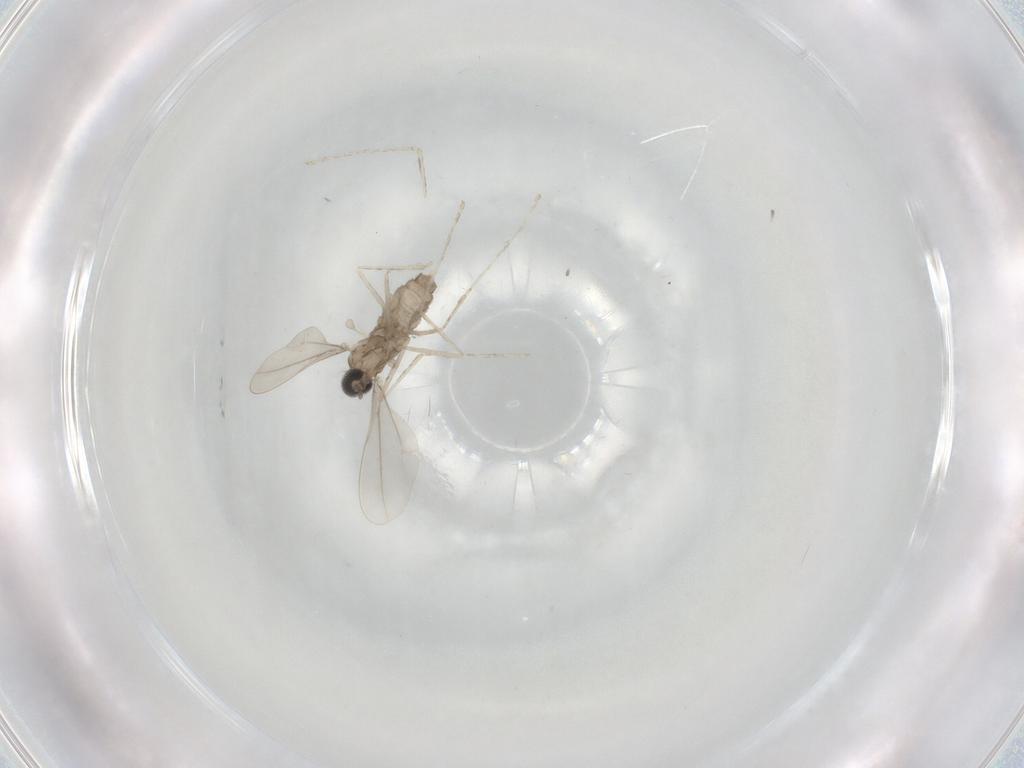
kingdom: Animalia
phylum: Arthropoda
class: Insecta
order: Diptera
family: Cecidomyiidae
